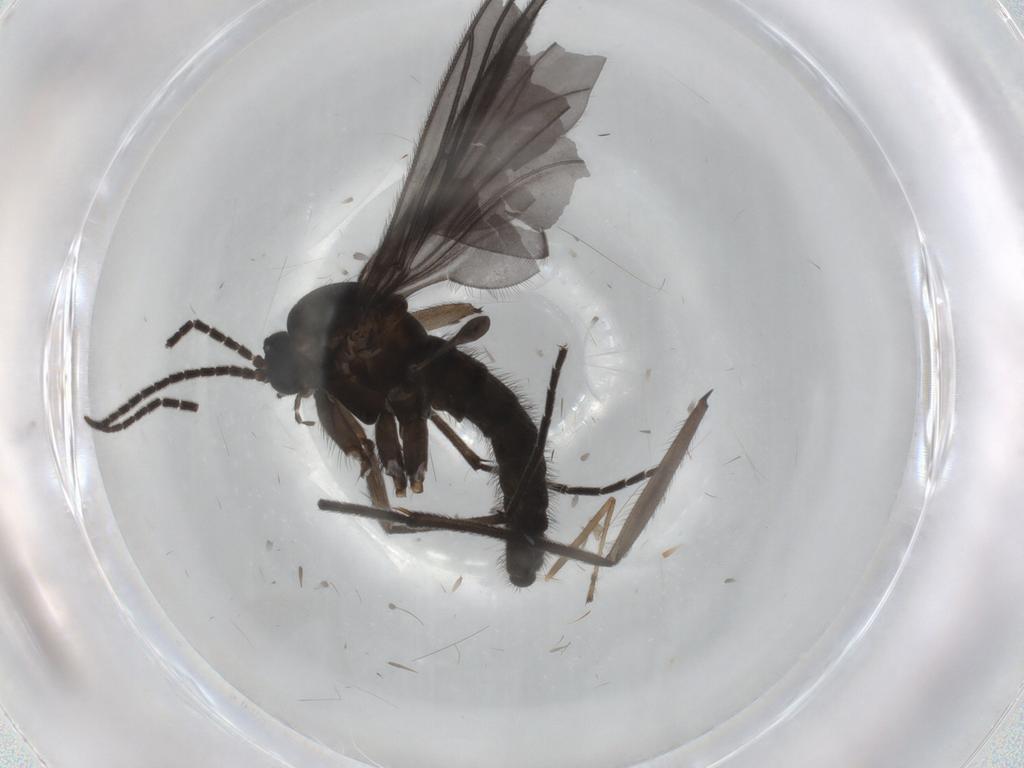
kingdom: Animalia
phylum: Arthropoda
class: Insecta
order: Diptera
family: Sciaridae
